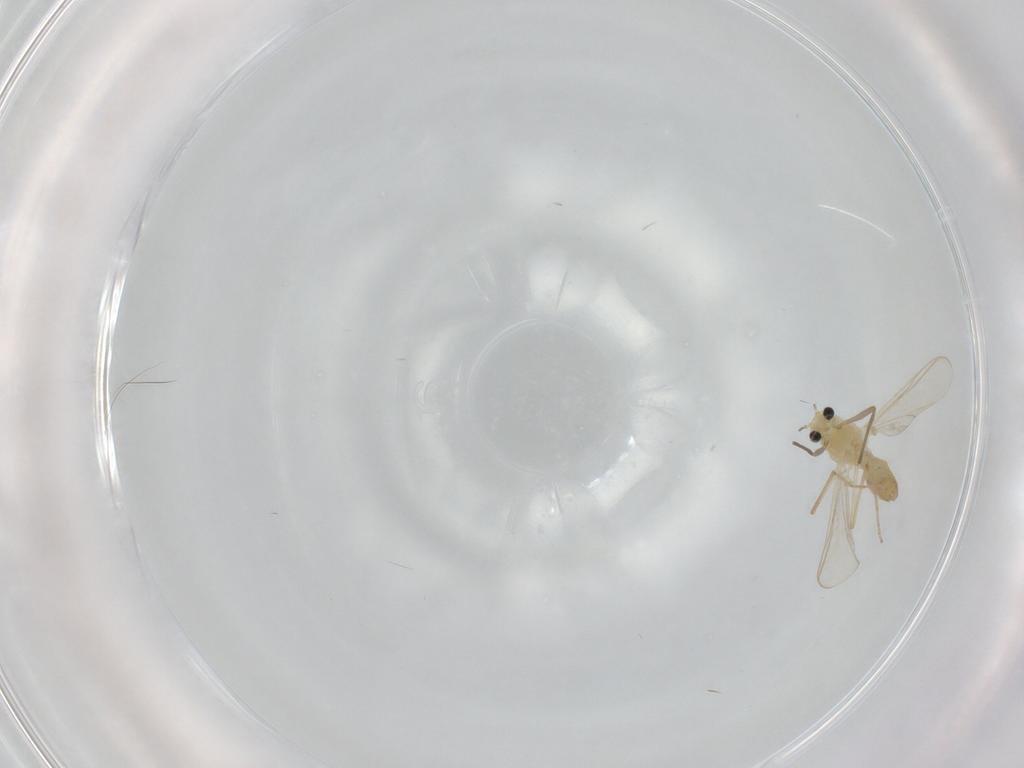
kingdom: Animalia
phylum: Arthropoda
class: Insecta
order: Diptera
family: Chironomidae
